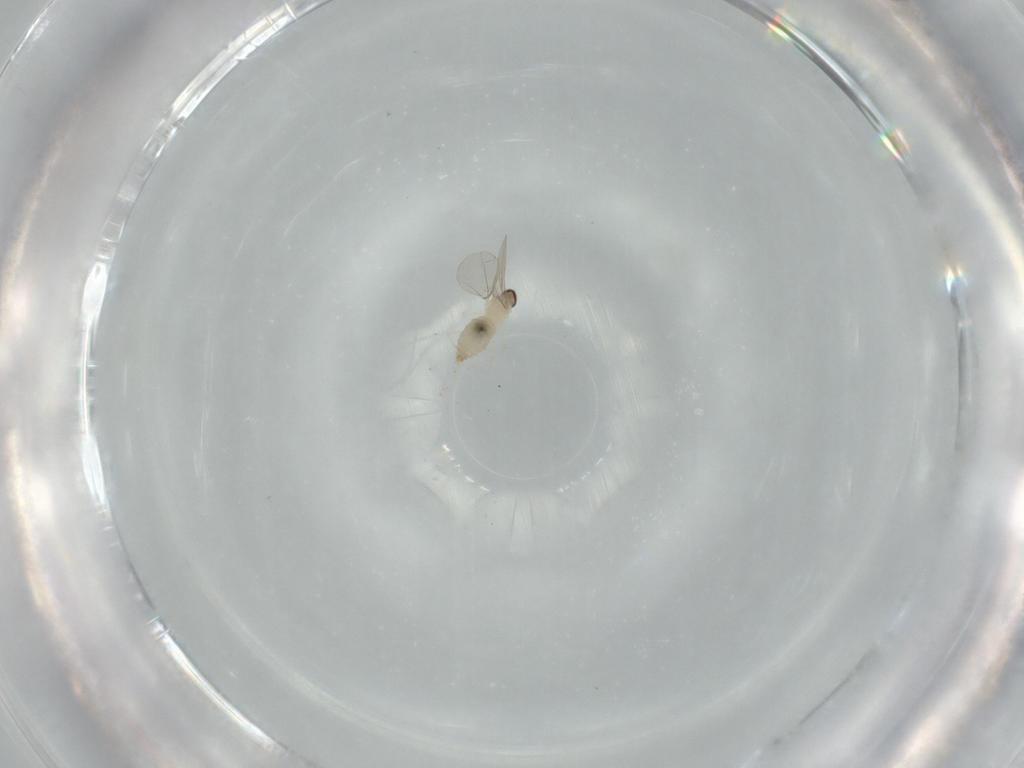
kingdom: Animalia
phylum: Arthropoda
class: Insecta
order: Diptera
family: Cecidomyiidae
